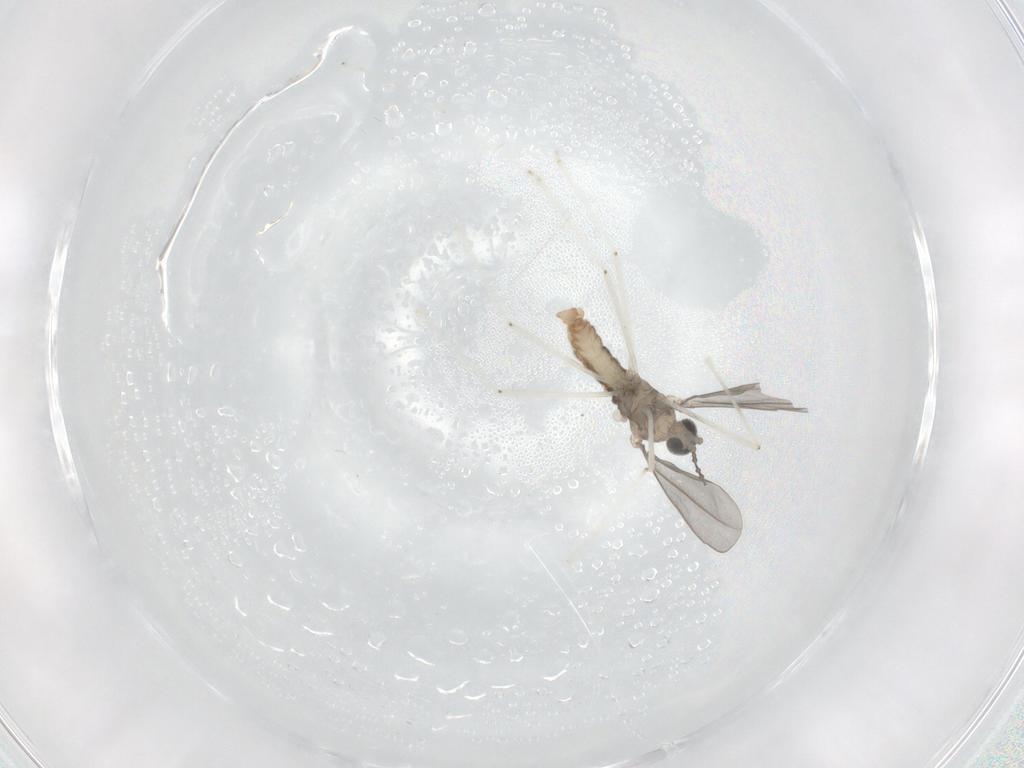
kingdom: Animalia
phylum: Arthropoda
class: Insecta
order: Diptera
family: Cecidomyiidae
